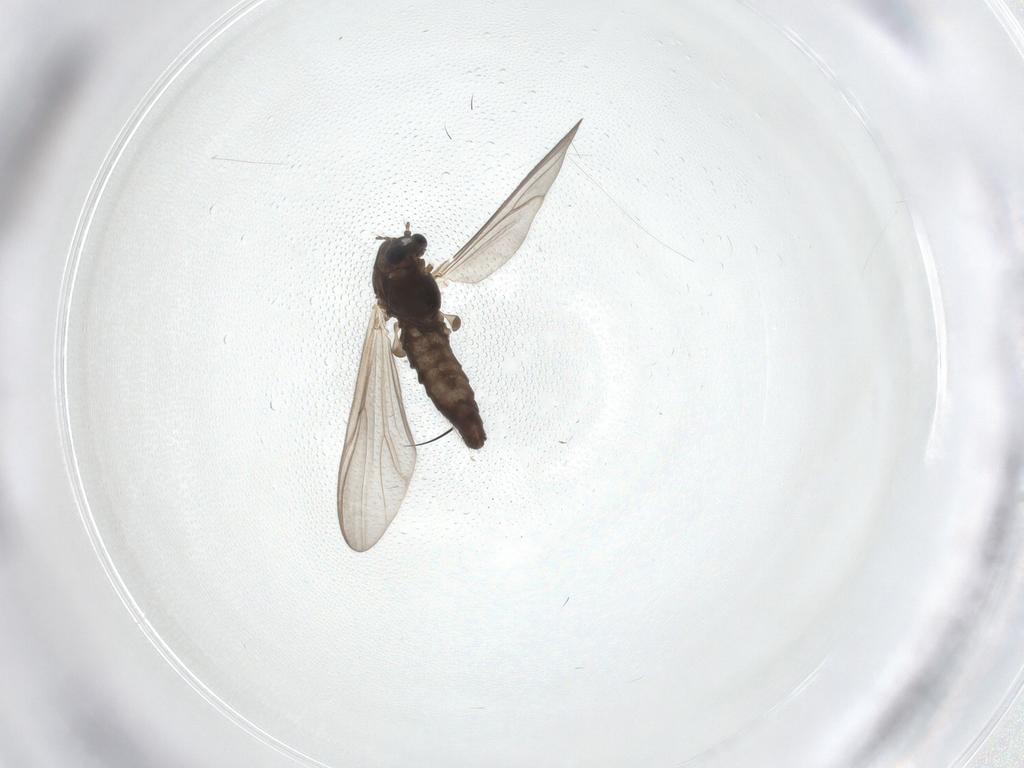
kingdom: Animalia
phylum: Arthropoda
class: Insecta
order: Diptera
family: Chironomidae
